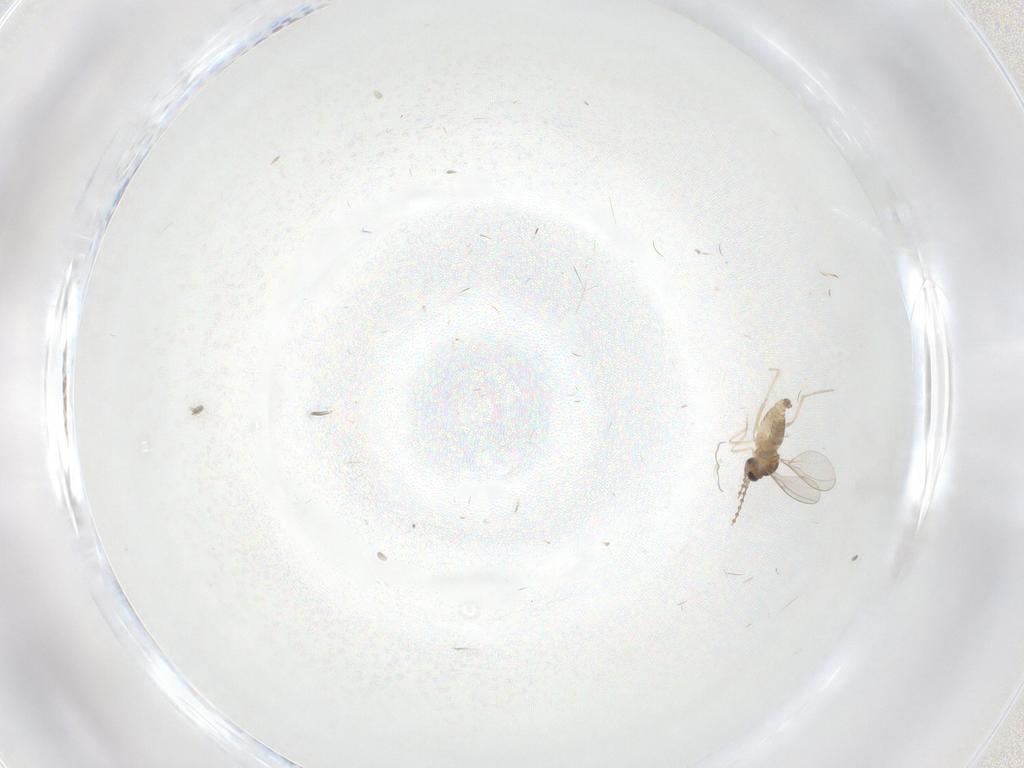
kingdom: Animalia
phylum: Arthropoda
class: Insecta
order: Diptera
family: Cecidomyiidae
